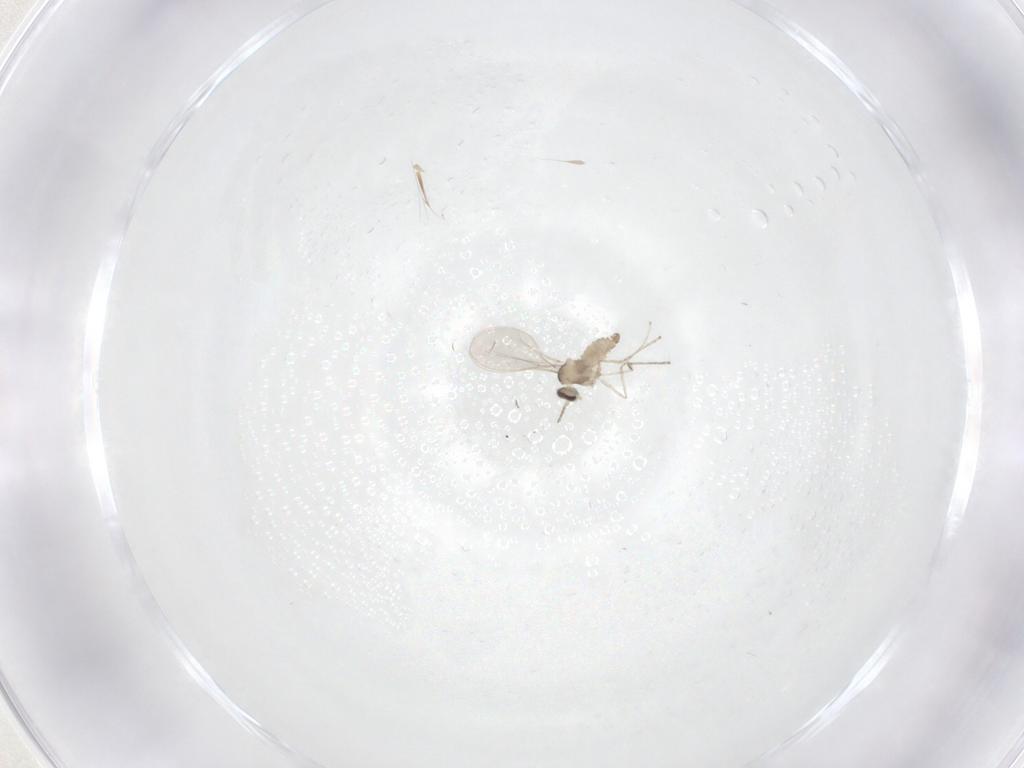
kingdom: Animalia
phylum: Arthropoda
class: Insecta
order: Diptera
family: Cecidomyiidae
